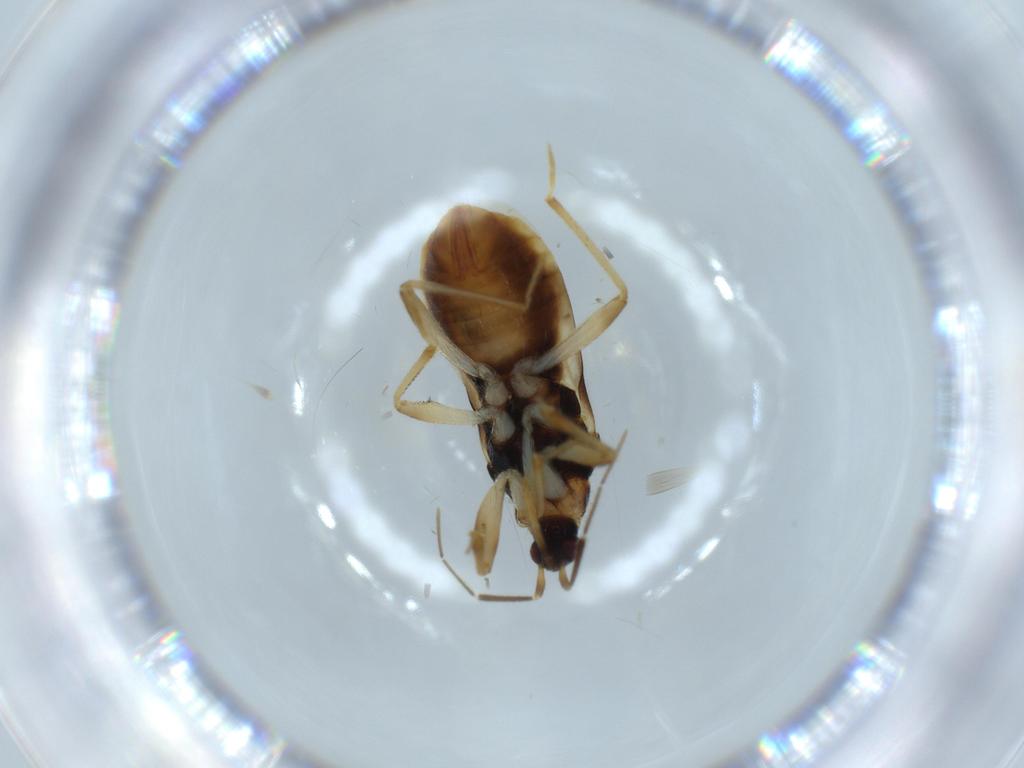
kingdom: Animalia
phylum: Arthropoda
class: Insecta
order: Hemiptera
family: Nabidae
